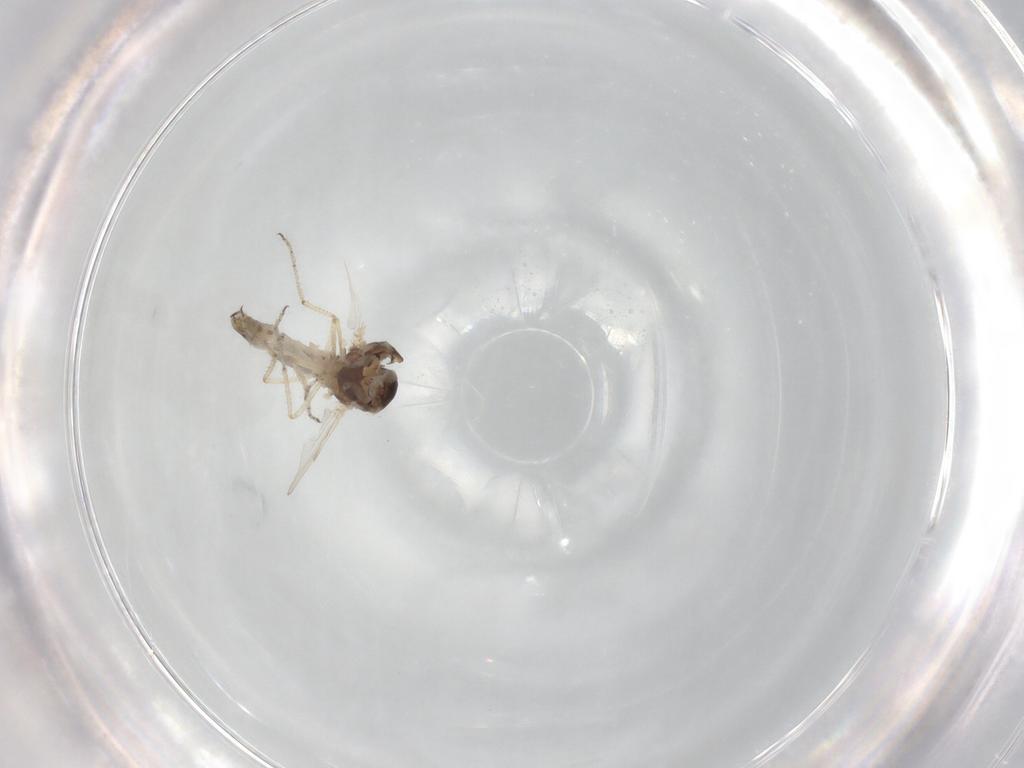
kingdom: Animalia
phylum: Arthropoda
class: Insecta
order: Diptera
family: Ceratopogonidae
